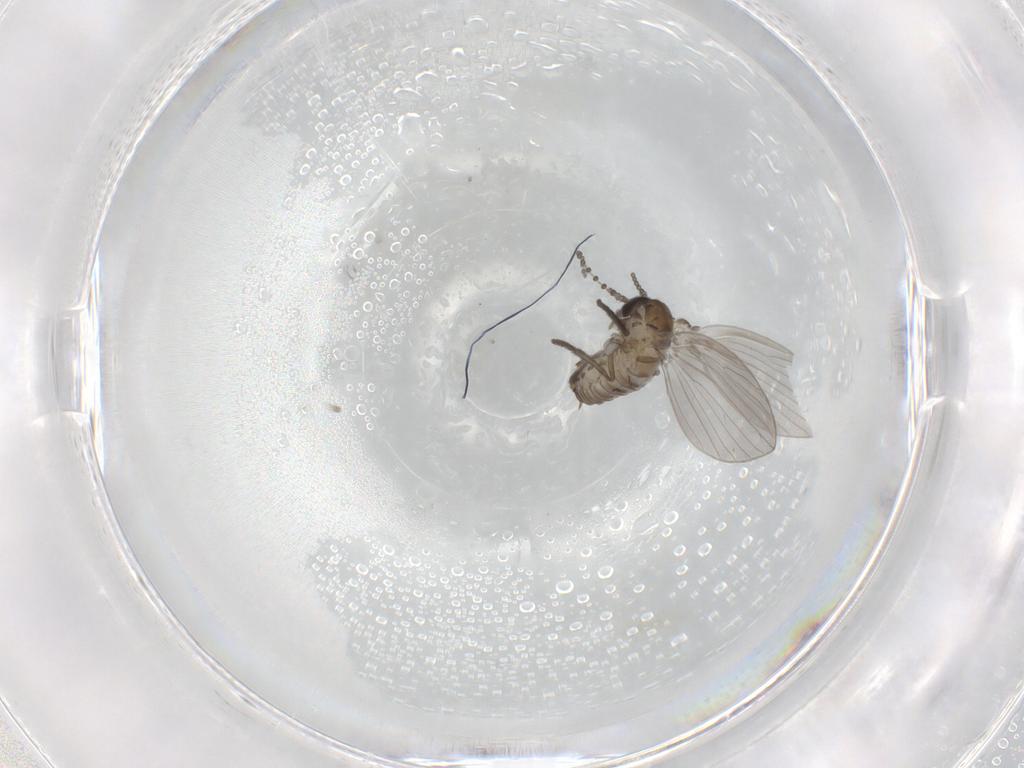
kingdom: Animalia
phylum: Arthropoda
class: Insecta
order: Diptera
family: Psychodidae
